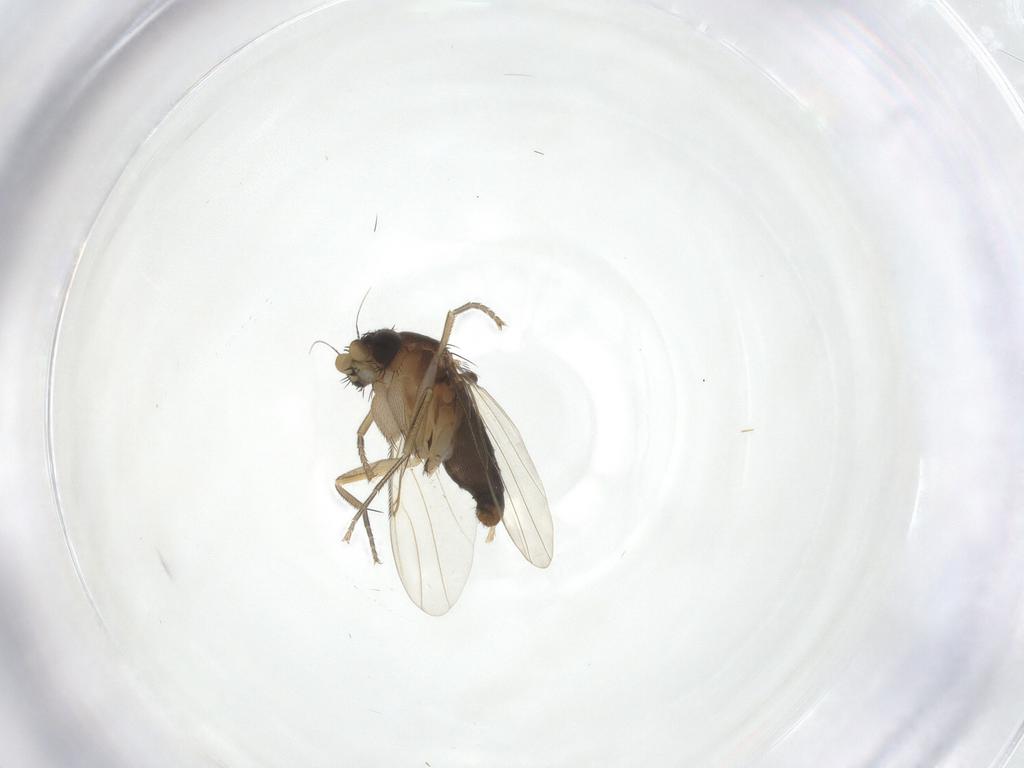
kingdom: Animalia
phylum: Arthropoda
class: Insecta
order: Diptera
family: Phoridae
